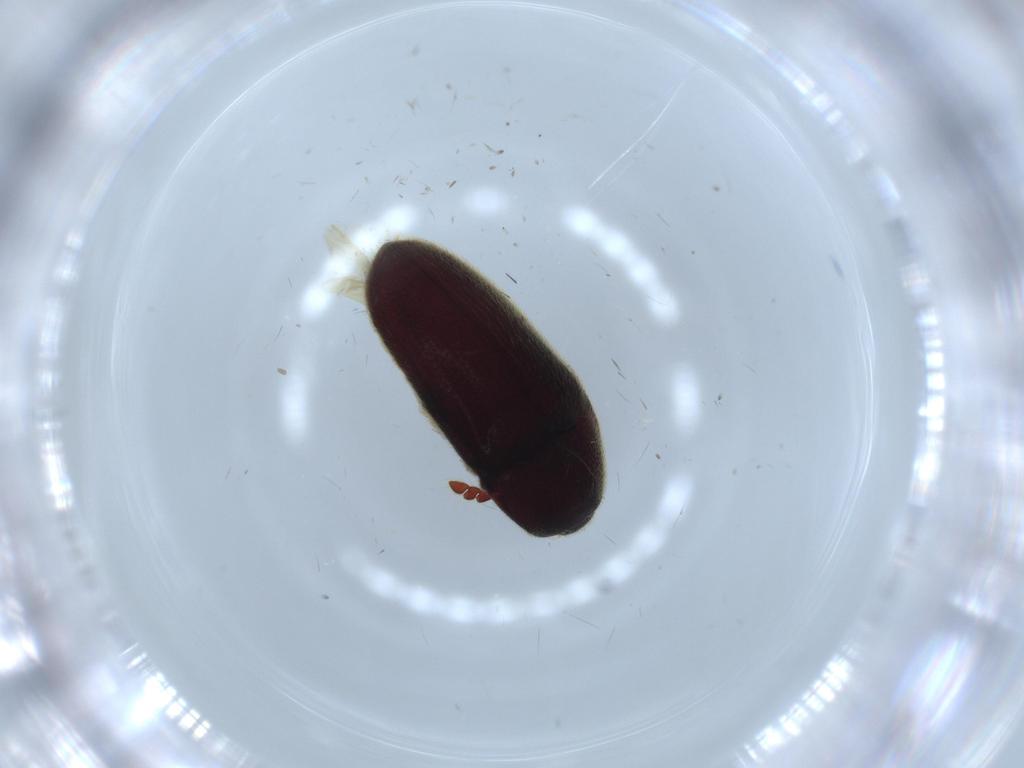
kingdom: Animalia
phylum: Arthropoda
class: Insecta
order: Coleoptera
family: Throscidae
